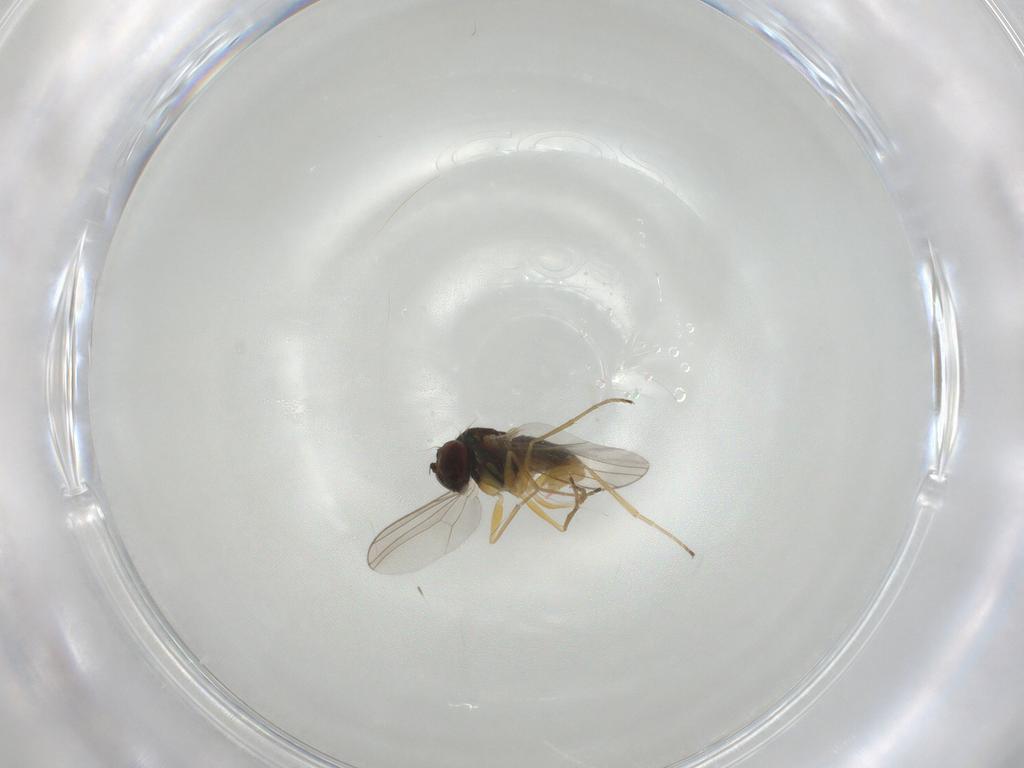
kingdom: Animalia
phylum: Arthropoda
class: Insecta
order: Diptera
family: Dolichopodidae
